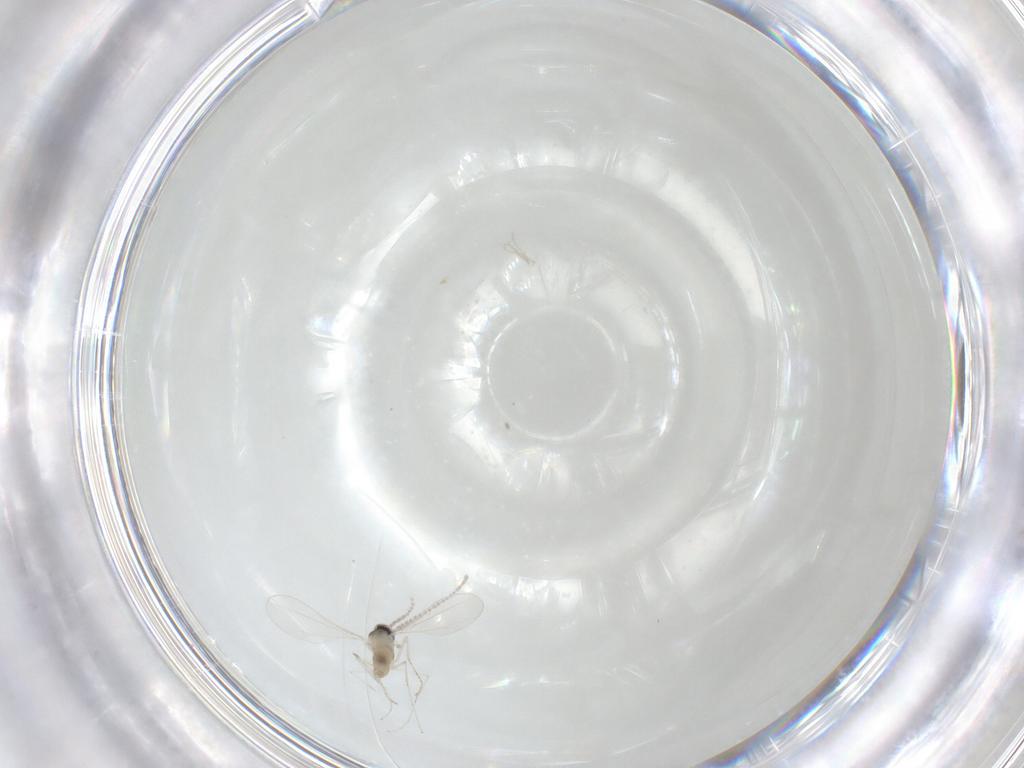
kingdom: Animalia
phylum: Arthropoda
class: Insecta
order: Diptera
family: Cecidomyiidae
